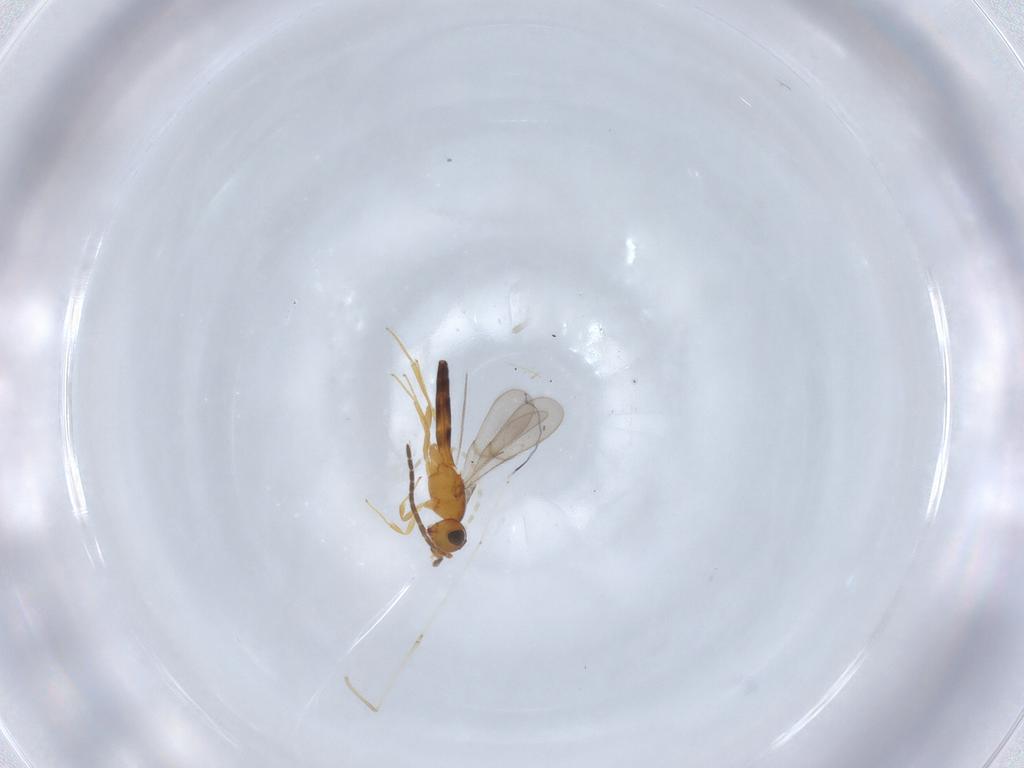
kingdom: Animalia
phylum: Arthropoda
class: Insecta
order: Hymenoptera
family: Scelionidae
